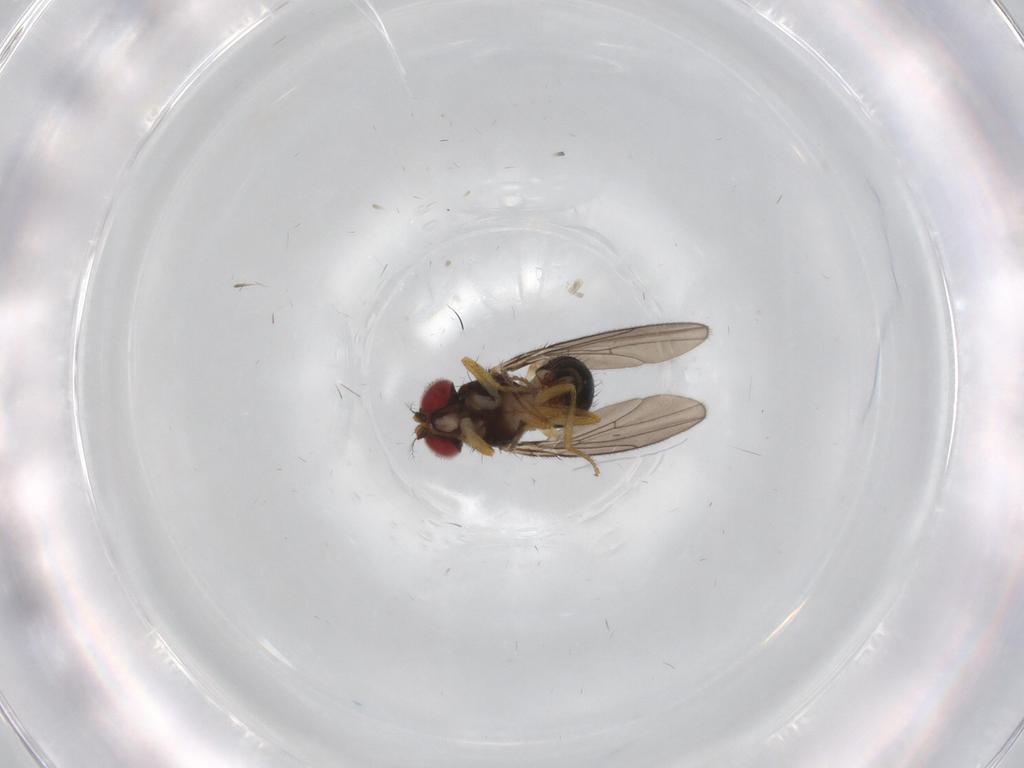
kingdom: Animalia
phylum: Arthropoda
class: Insecta
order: Diptera
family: Drosophilidae
